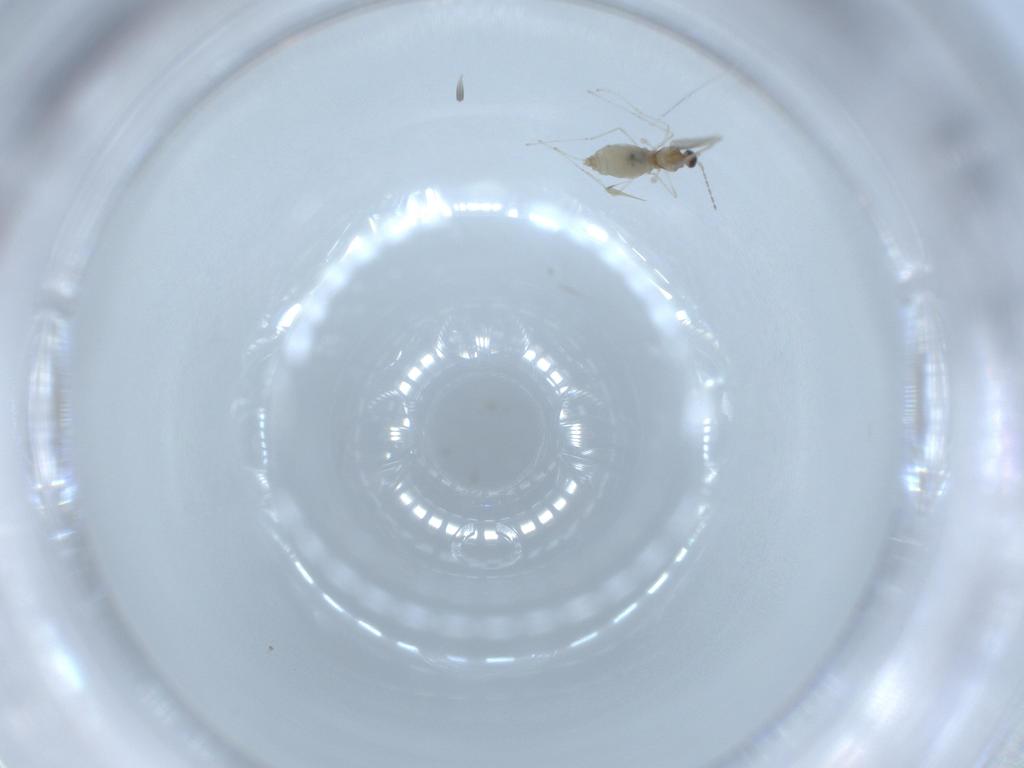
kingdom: Animalia
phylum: Arthropoda
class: Insecta
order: Diptera
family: Cecidomyiidae
